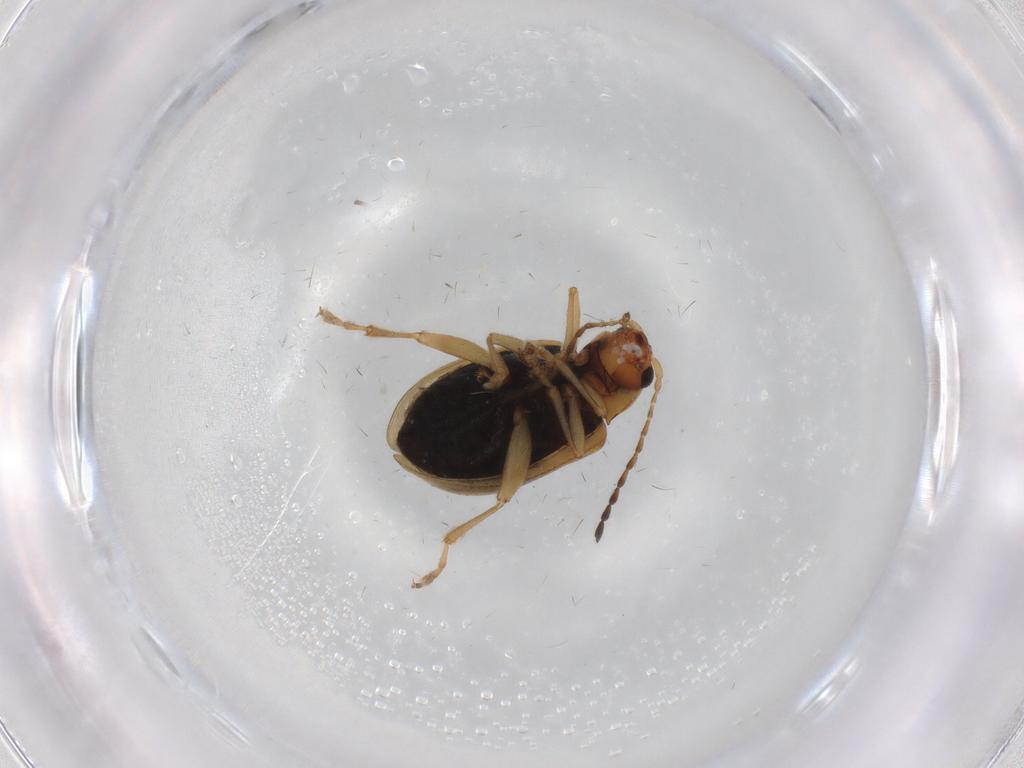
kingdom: Animalia
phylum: Arthropoda
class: Insecta
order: Coleoptera
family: Chrysomelidae
